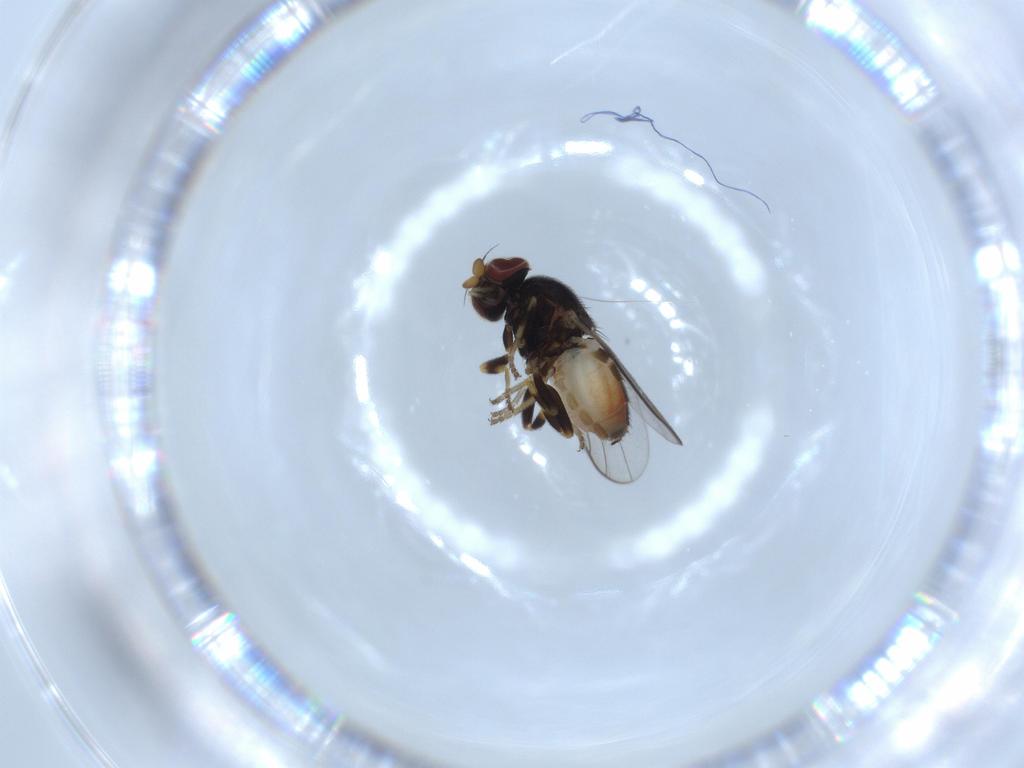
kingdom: Animalia
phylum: Arthropoda
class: Insecta
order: Diptera
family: Chloropidae
